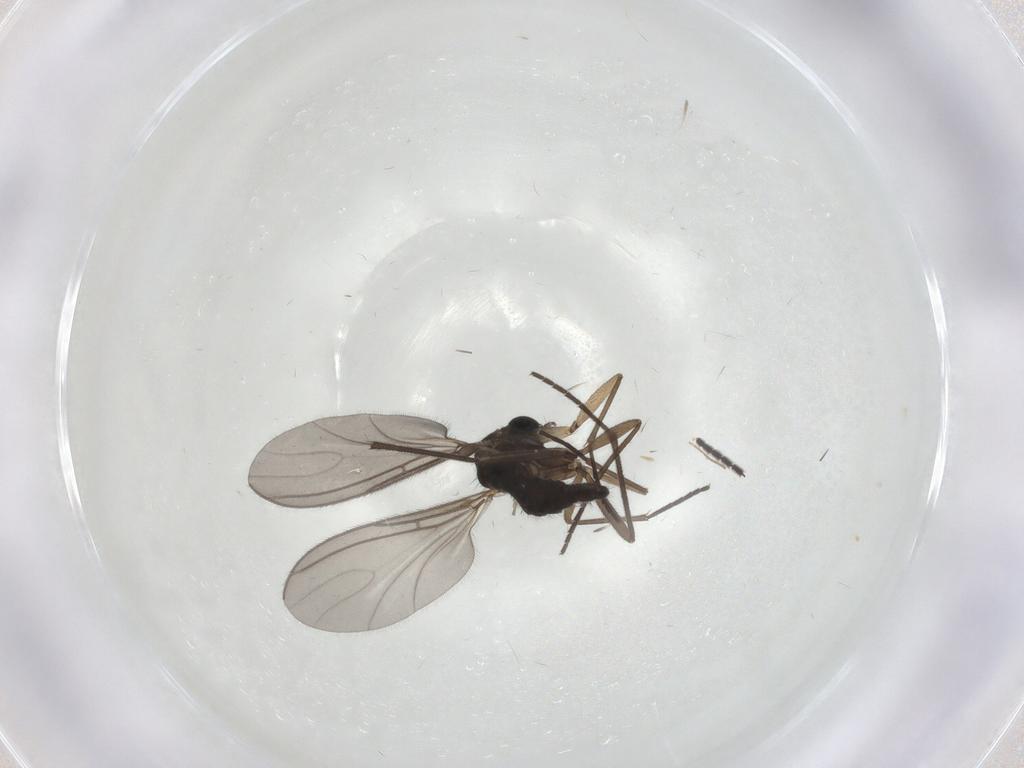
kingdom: Animalia
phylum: Arthropoda
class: Insecta
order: Diptera
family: Sciaridae
